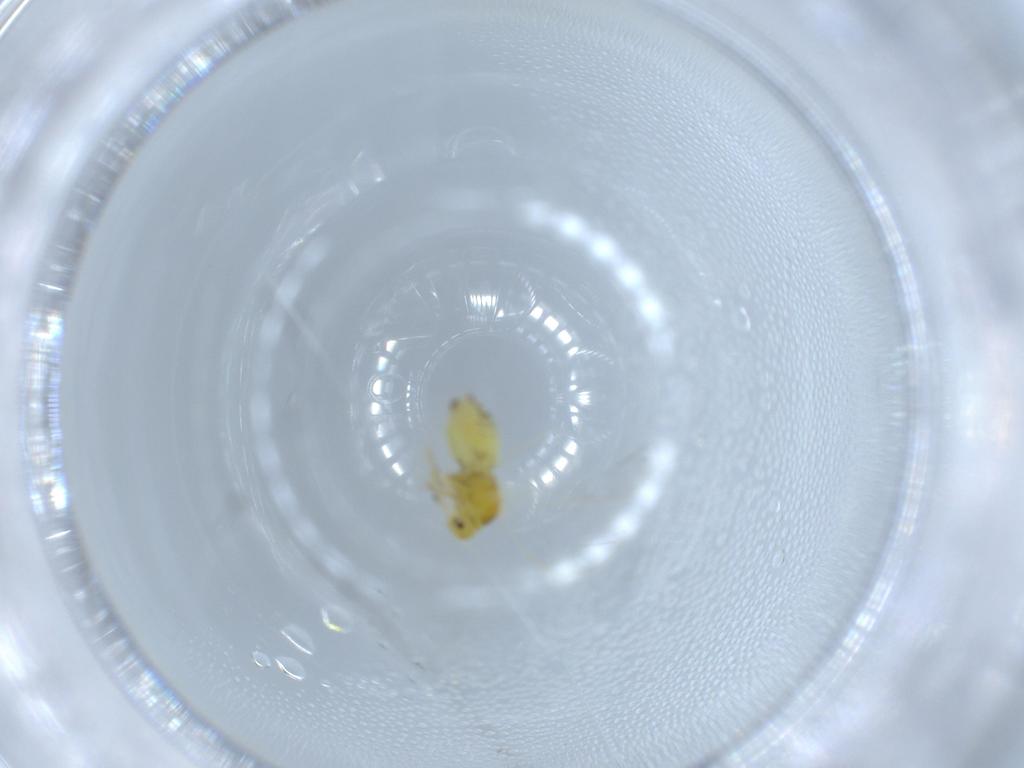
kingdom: Animalia
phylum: Arthropoda
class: Insecta
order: Hemiptera
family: Aleyrodidae
